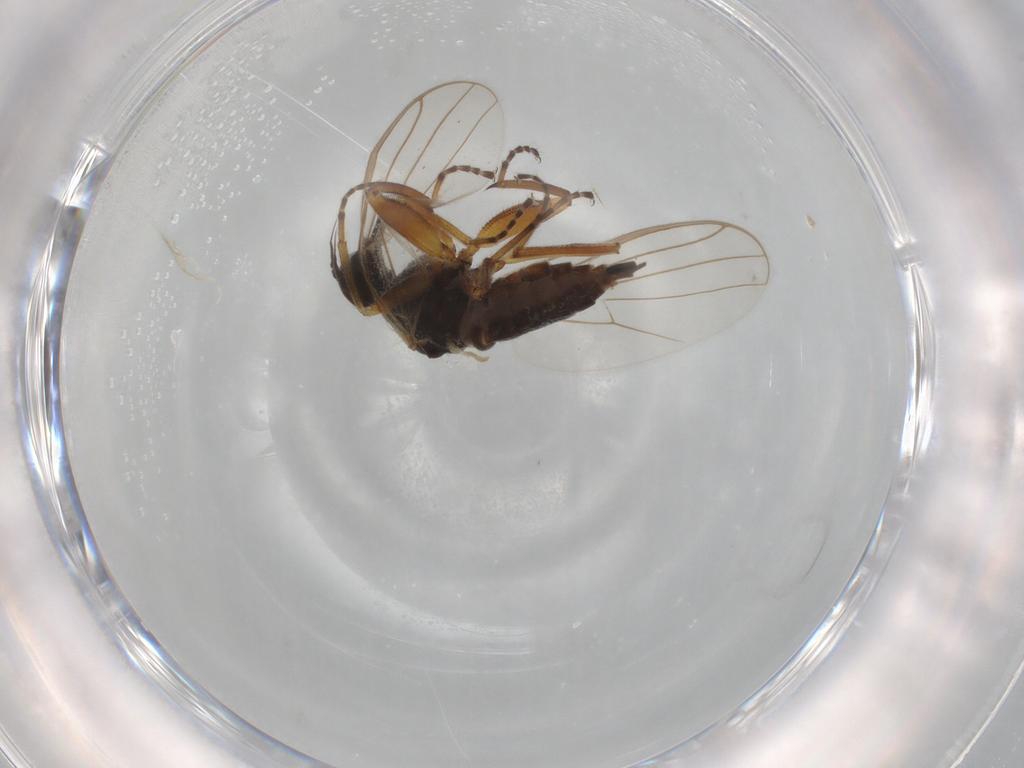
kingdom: Animalia
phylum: Arthropoda
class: Insecta
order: Diptera
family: Hybotidae
